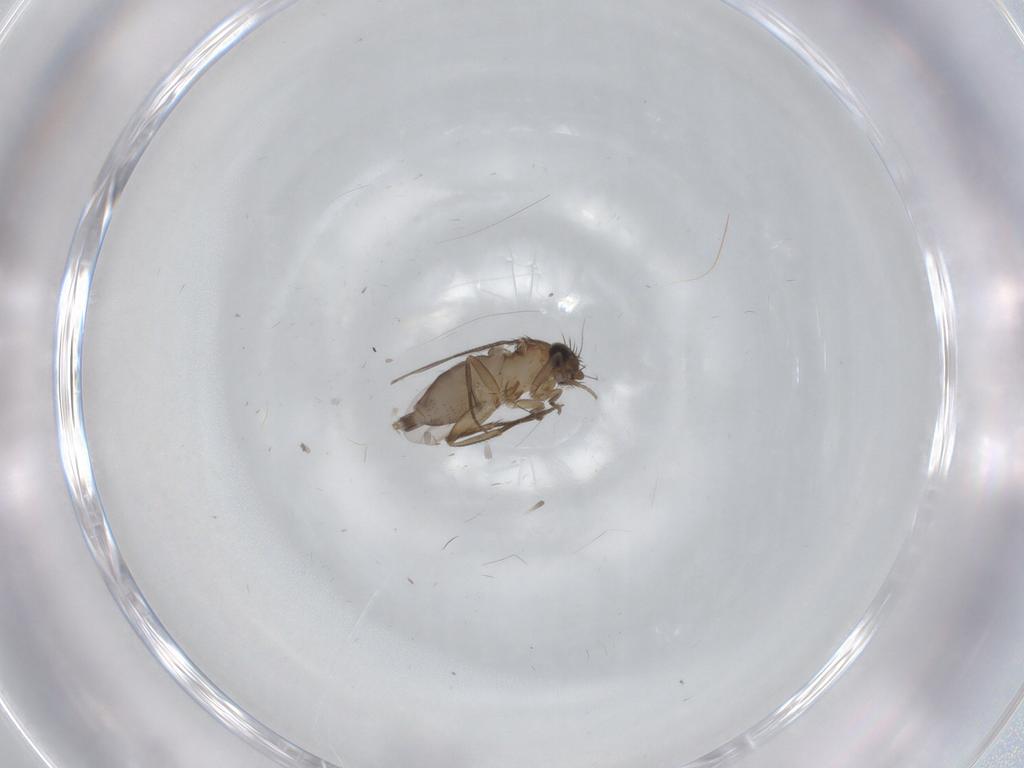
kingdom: Animalia
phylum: Arthropoda
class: Insecta
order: Diptera
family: Phoridae
